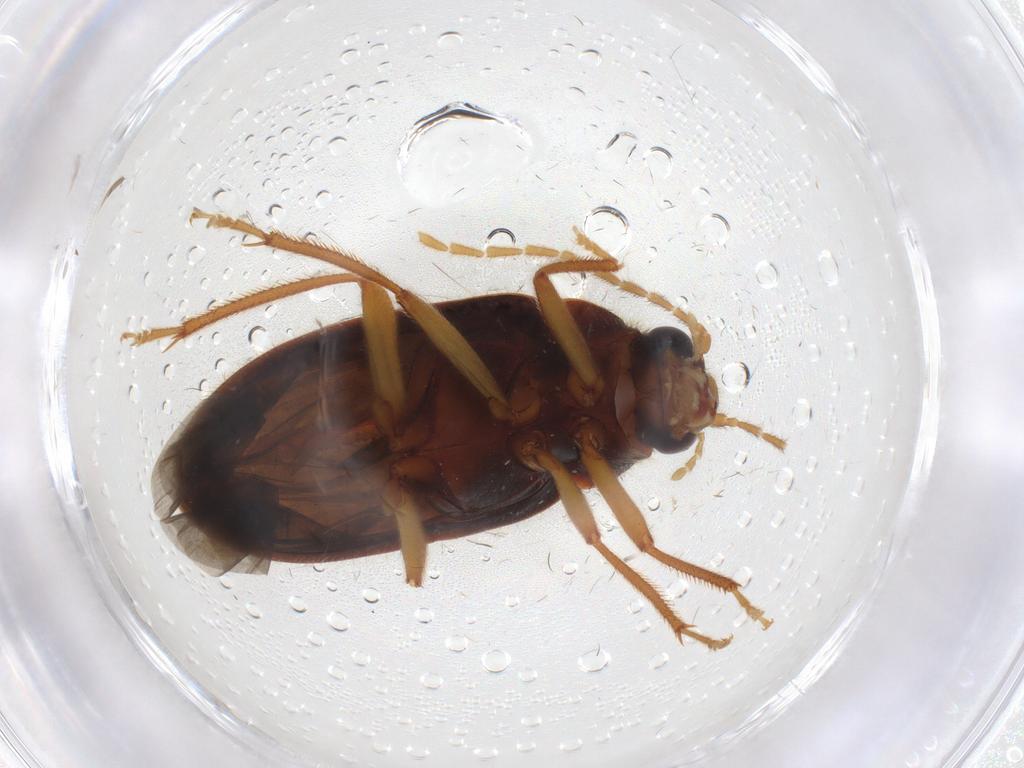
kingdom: Animalia
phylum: Arthropoda
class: Insecta
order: Coleoptera
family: Ptilodactylidae
